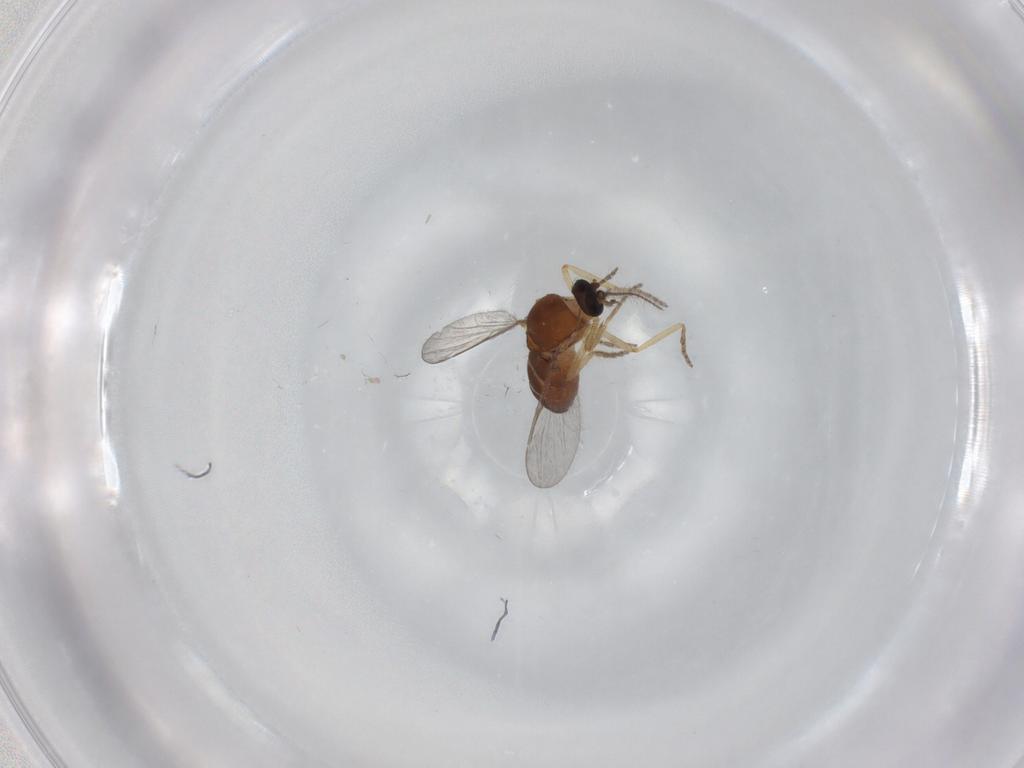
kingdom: Animalia
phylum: Arthropoda
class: Insecta
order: Diptera
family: Ceratopogonidae
